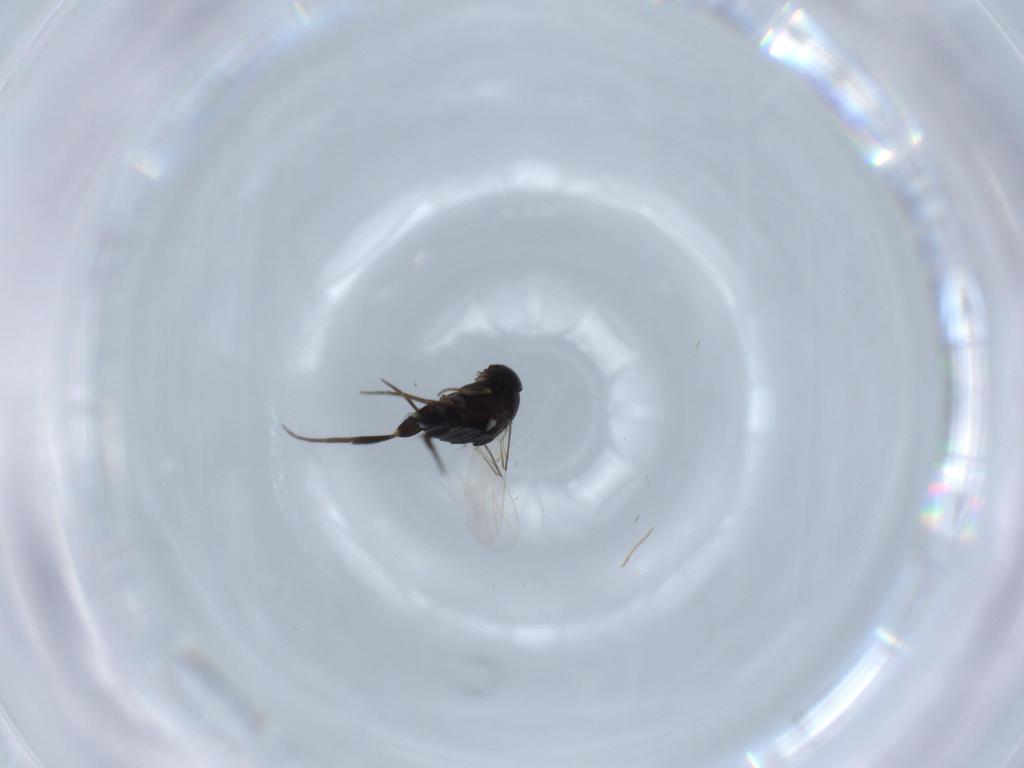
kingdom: Animalia
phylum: Arthropoda
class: Insecta
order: Diptera
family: Phoridae
